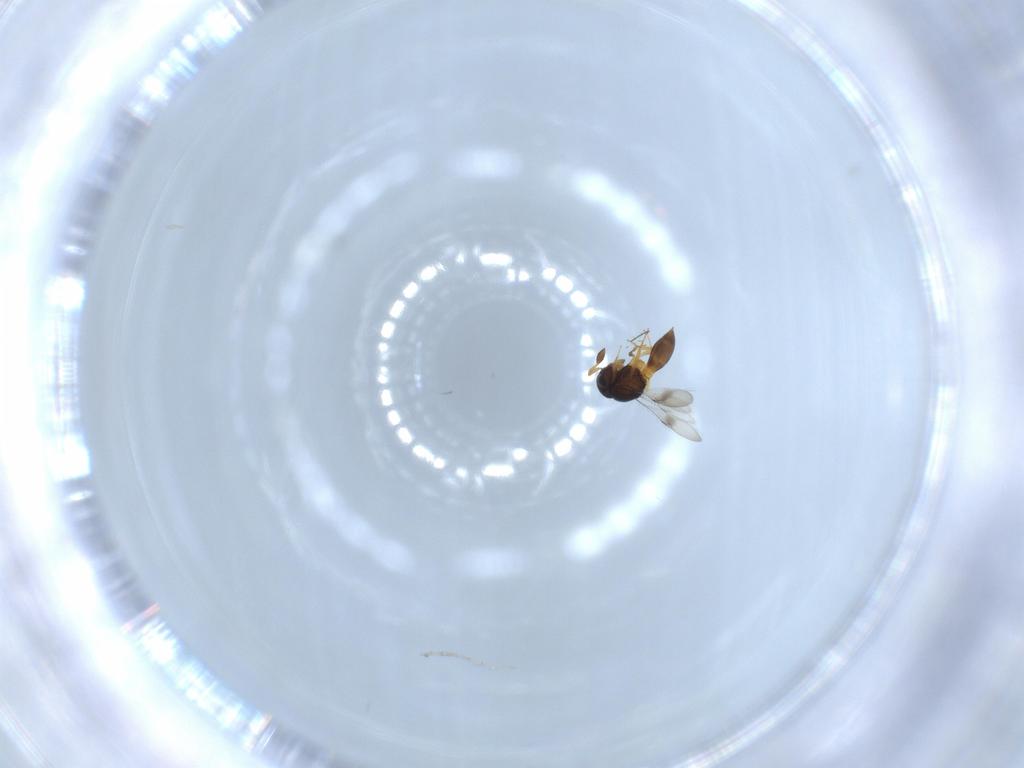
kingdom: Animalia
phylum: Arthropoda
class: Insecta
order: Hymenoptera
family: Scelionidae
